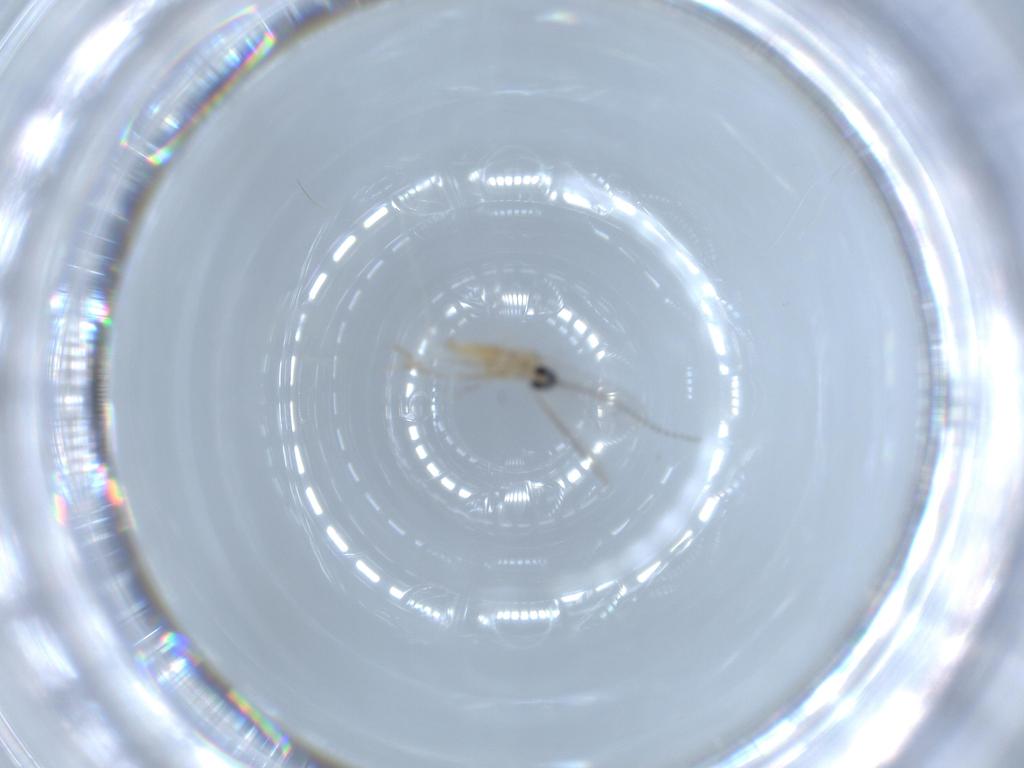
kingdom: Animalia
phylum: Arthropoda
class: Insecta
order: Diptera
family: Cecidomyiidae
